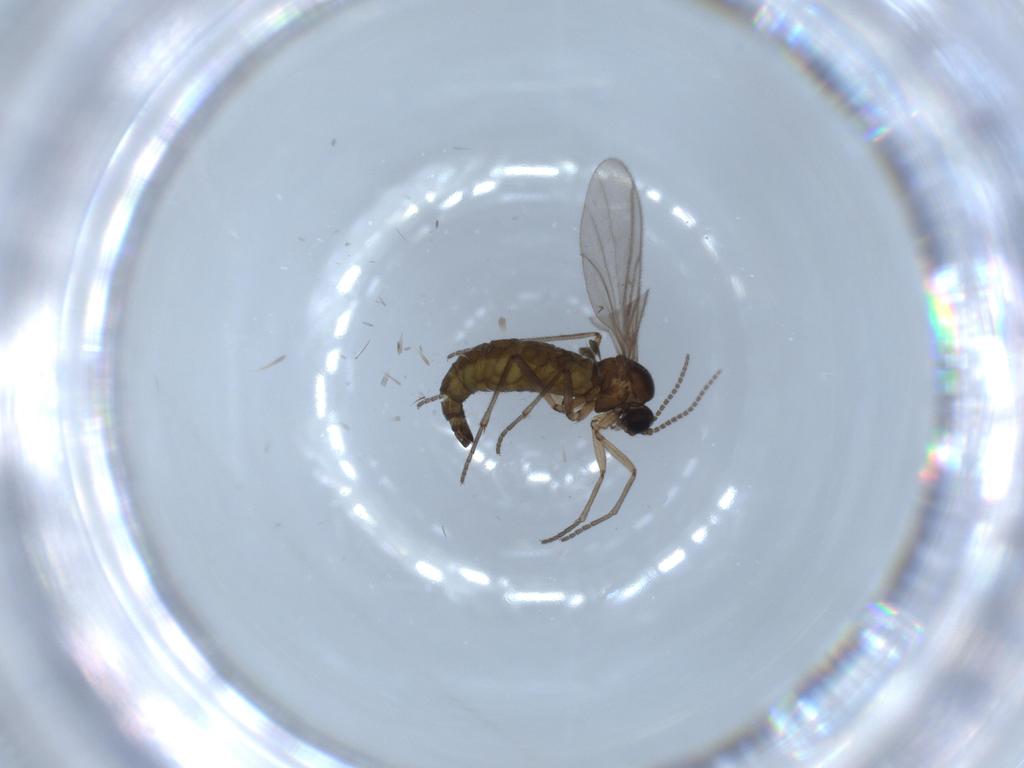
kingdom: Animalia
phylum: Arthropoda
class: Insecta
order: Diptera
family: Sciaridae
